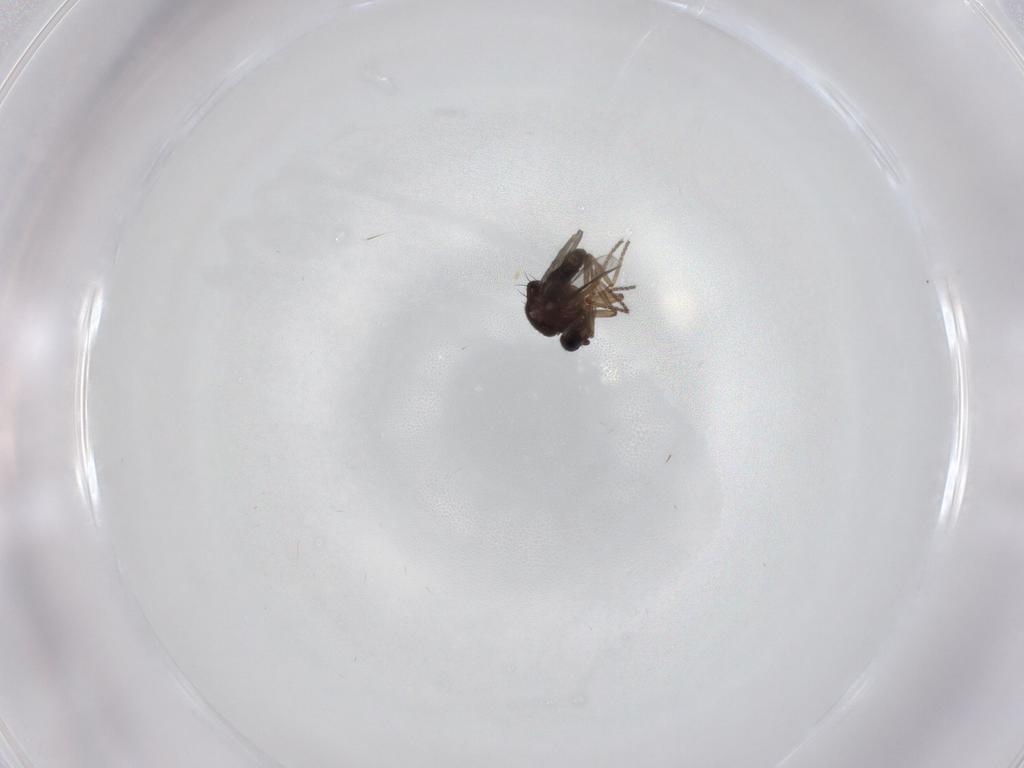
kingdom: Animalia
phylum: Arthropoda
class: Insecta
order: Diptera
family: Ceratopogonidae
